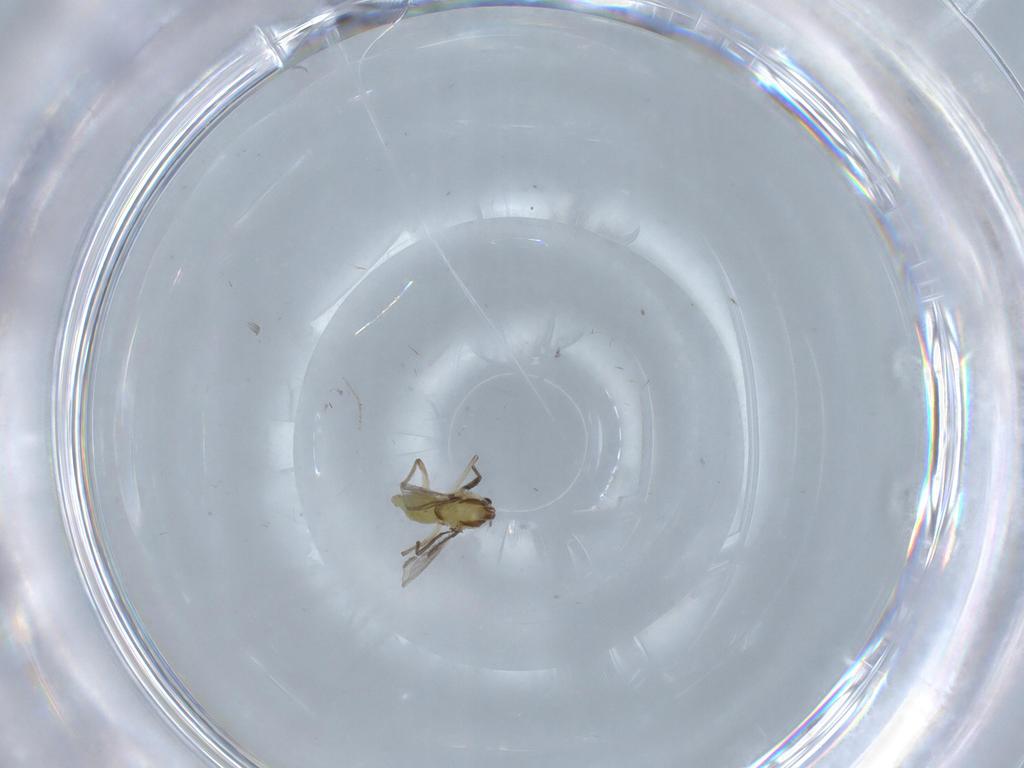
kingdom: Animalia
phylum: Arthropoda
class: Insecta
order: Diptera
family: Chironomidae
